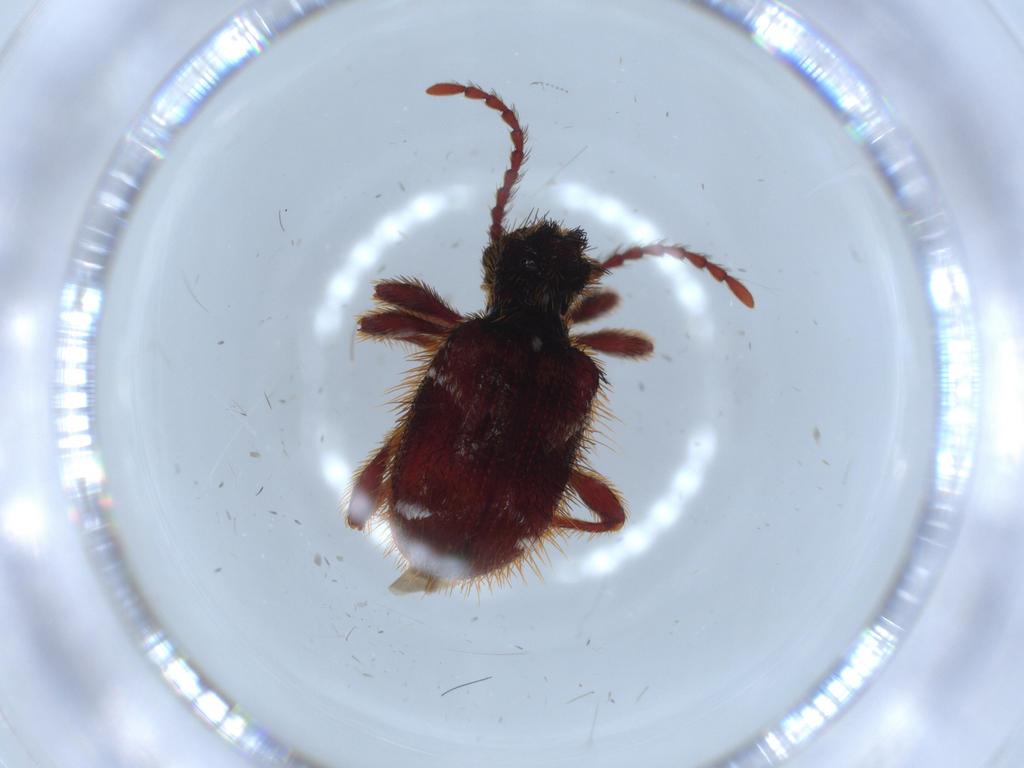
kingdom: Animalia
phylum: Arthropoda
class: Insecta
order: Coleoptera
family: Ptinidae
